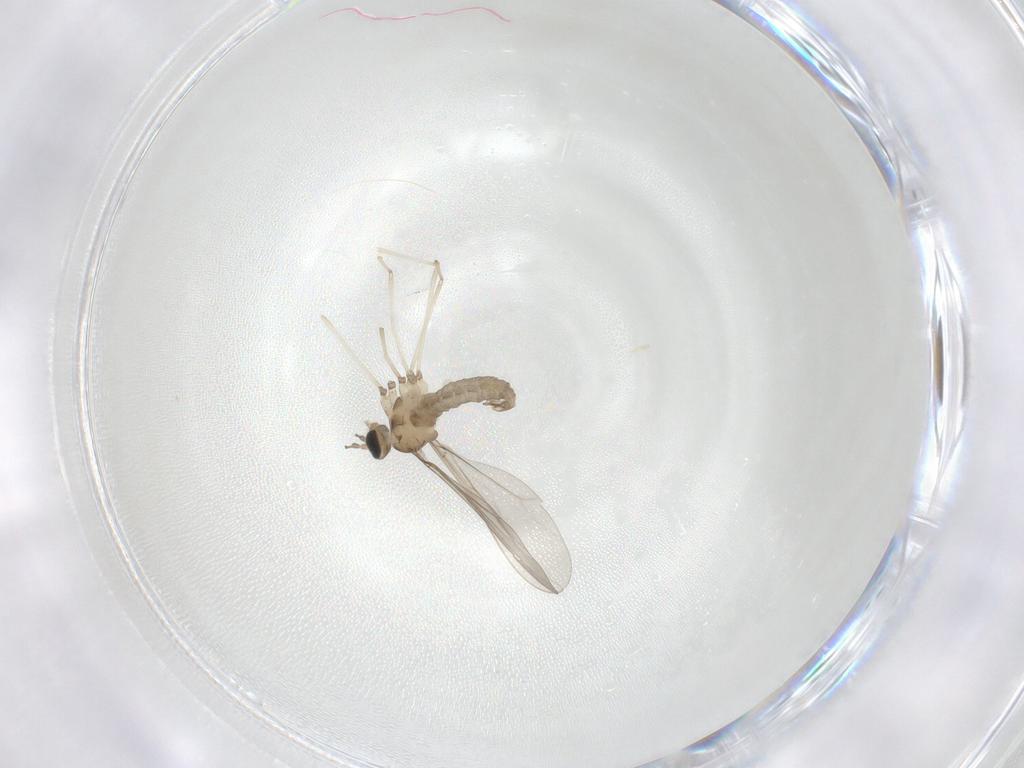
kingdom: Animalia
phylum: Arthropoda
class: Insecta
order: Diptera
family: Cecidomyiidae
